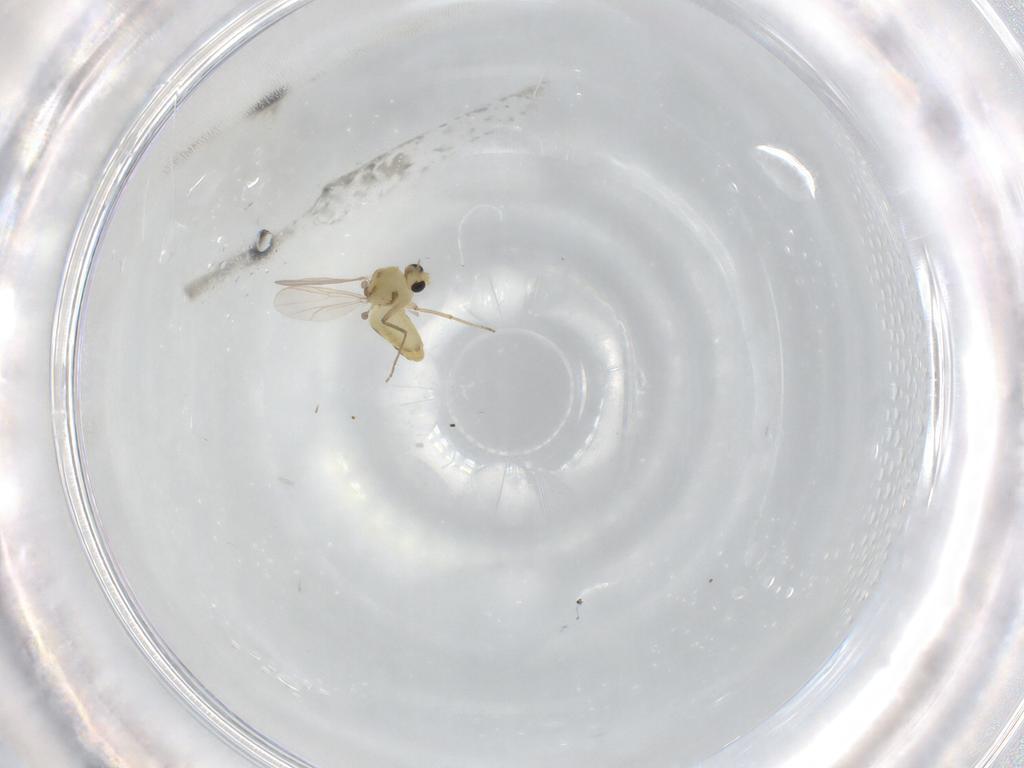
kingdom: Animalia
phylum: Arthropoda
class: Insecta
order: Diptera
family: Chironomidae
